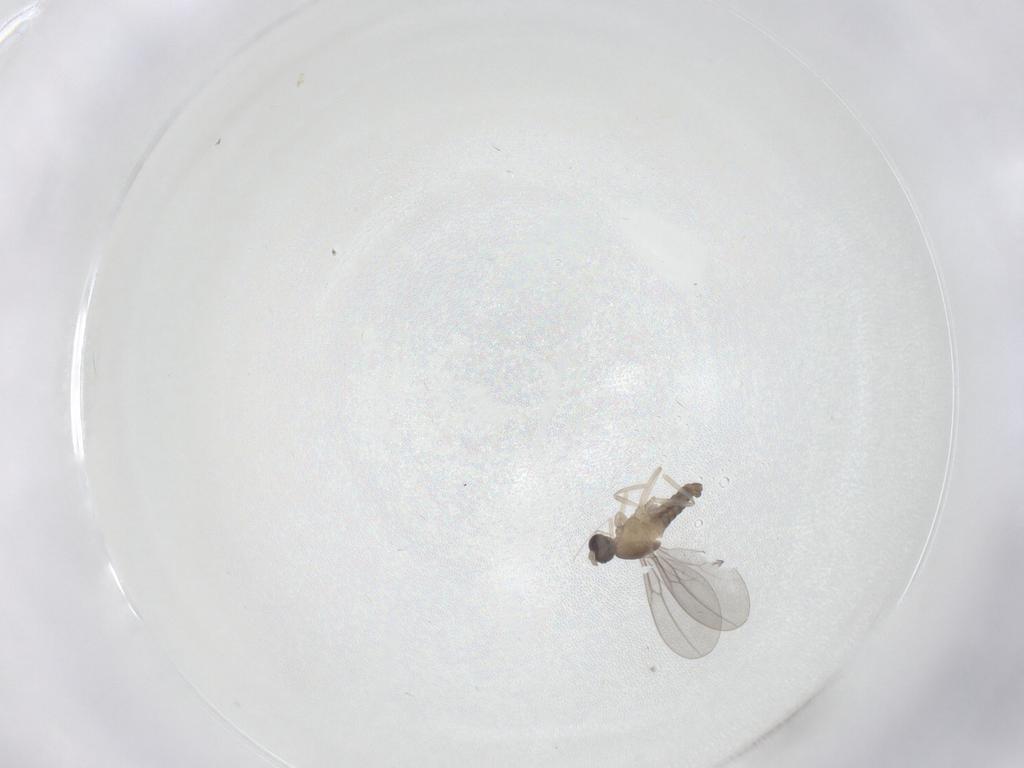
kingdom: Animalia
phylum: Arthropoda
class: Insecta
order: Diptera
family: Cecidomyiidae
